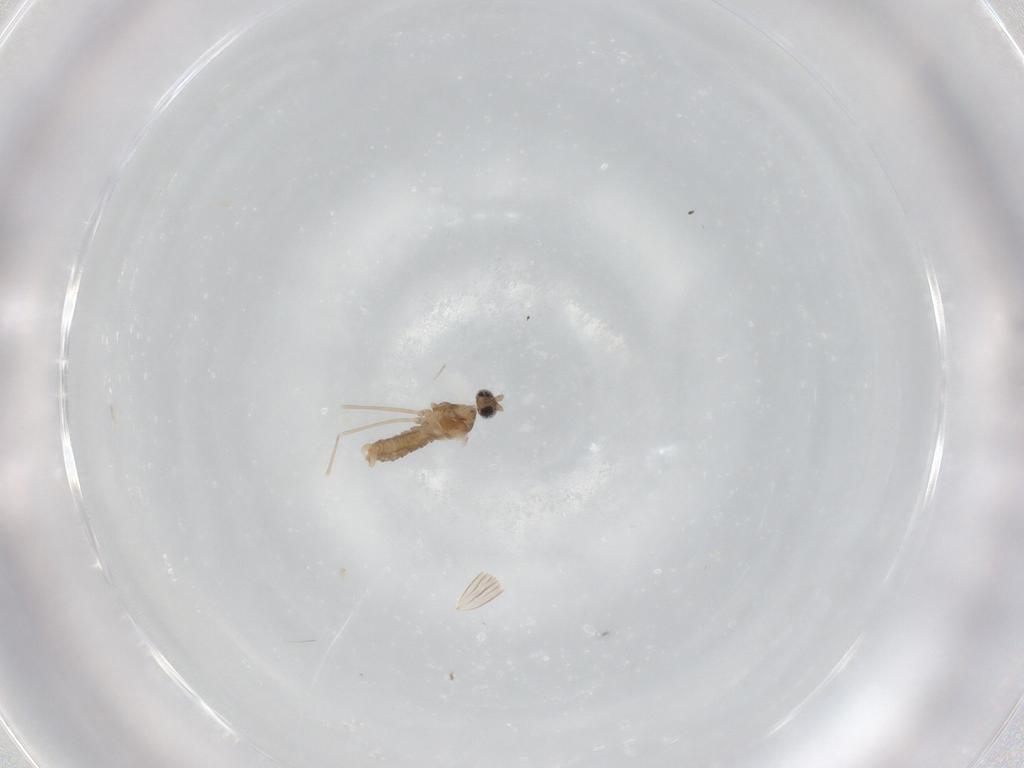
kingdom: Animalia
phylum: Arthropoda
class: Insecta
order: Diptera
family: Cecidomyiidae
